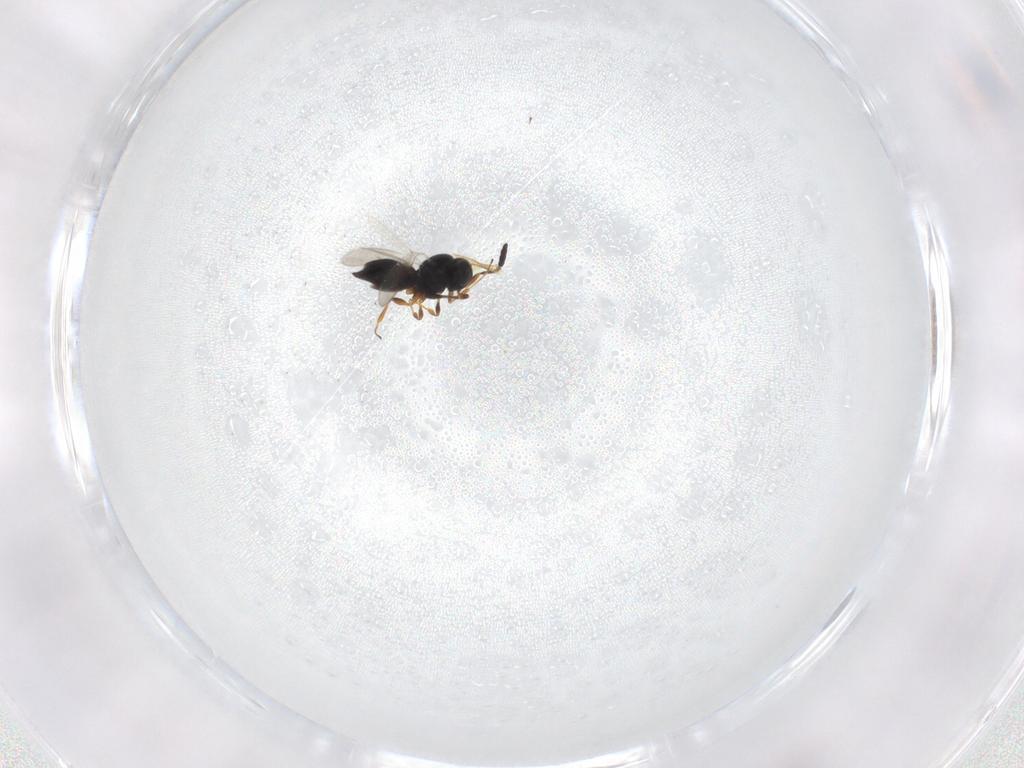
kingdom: Animalia
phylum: Arthropoda
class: Insecta
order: Hymenoptera
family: Scelionidae
